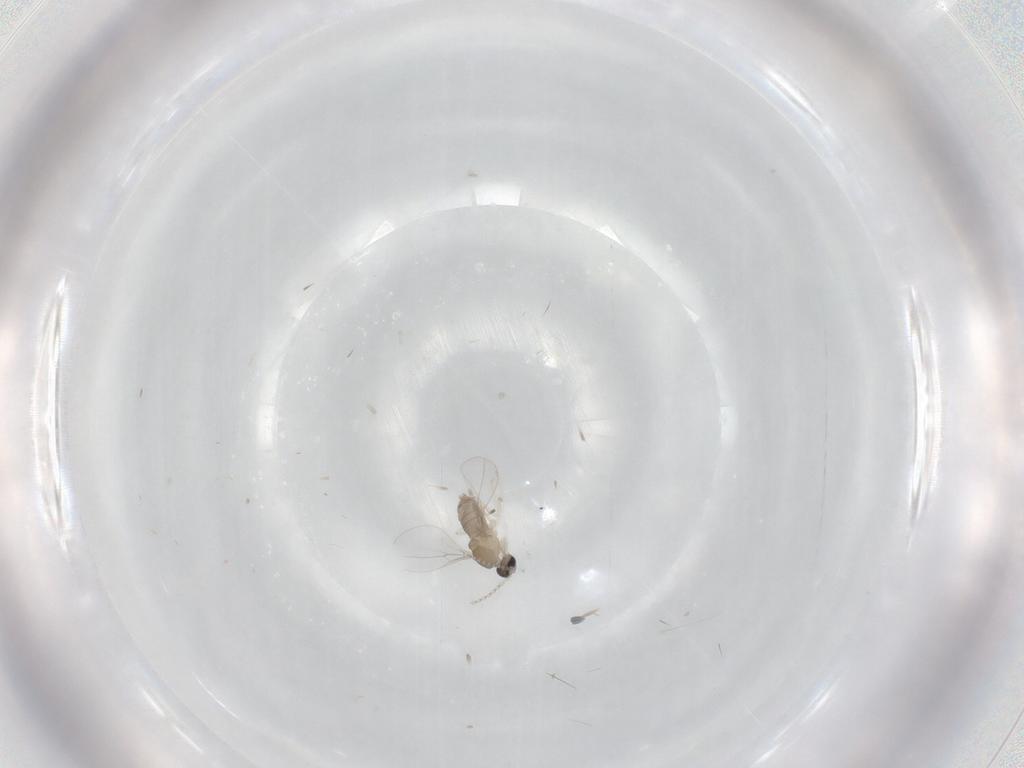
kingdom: Animalia
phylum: Arthropoda
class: Insecta
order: Diptera
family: Cecidomyiidae
